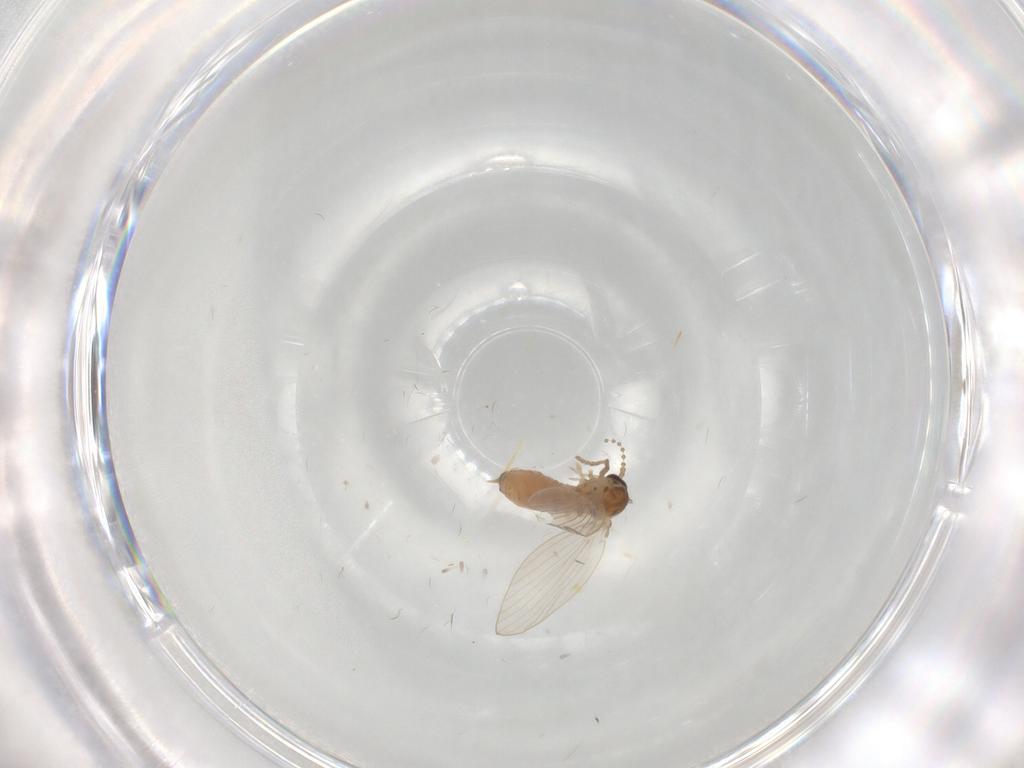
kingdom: Animalia
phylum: Arthropoda
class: Insecta
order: Diptera
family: Psychodidae
